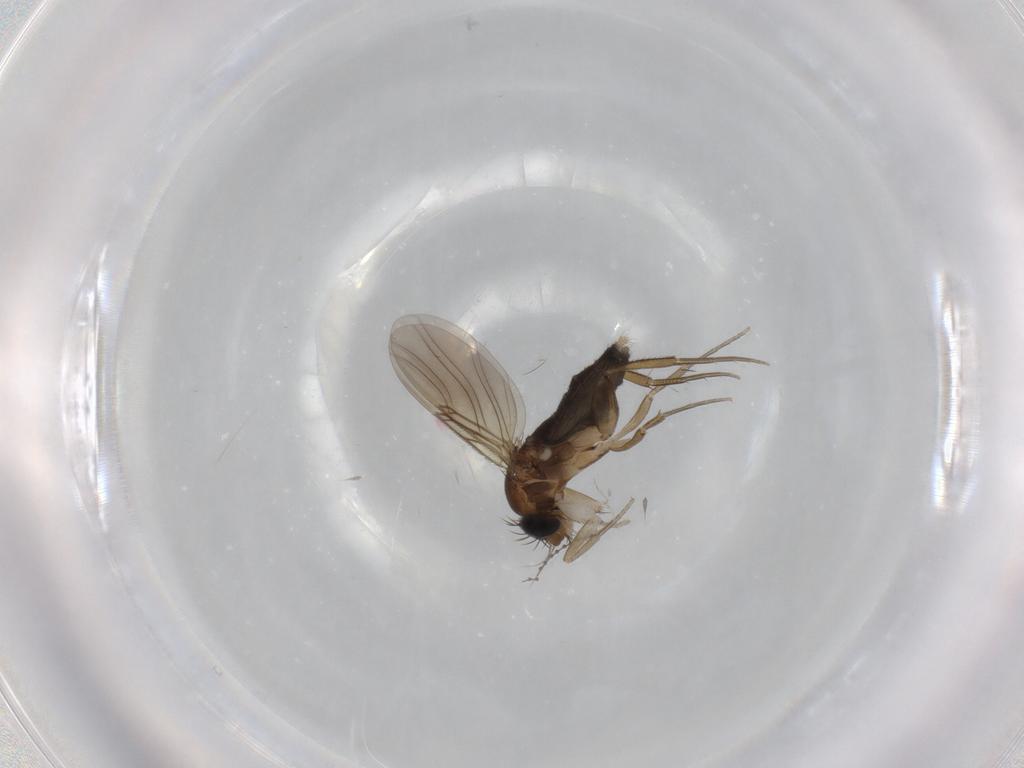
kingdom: Animalia
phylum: Arthropoda
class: Insecta
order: Diptera
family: Phoridae
